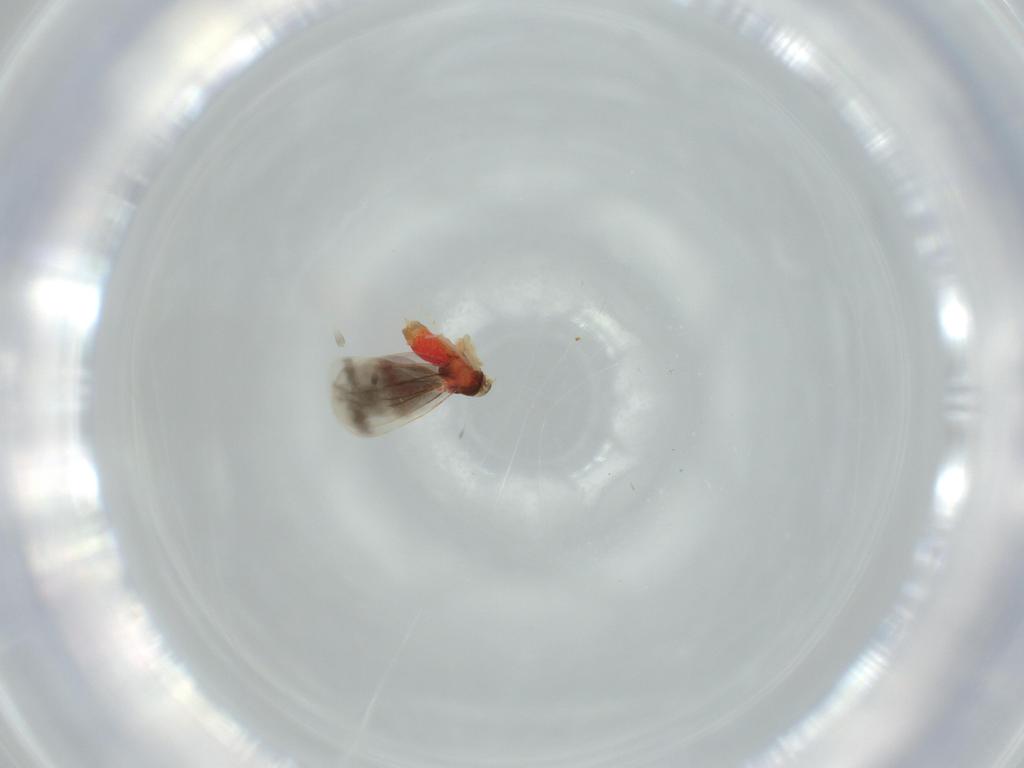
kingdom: Animalia
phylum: Arthropoda
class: Insecta
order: Hemiptera
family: Aleyrodidae
